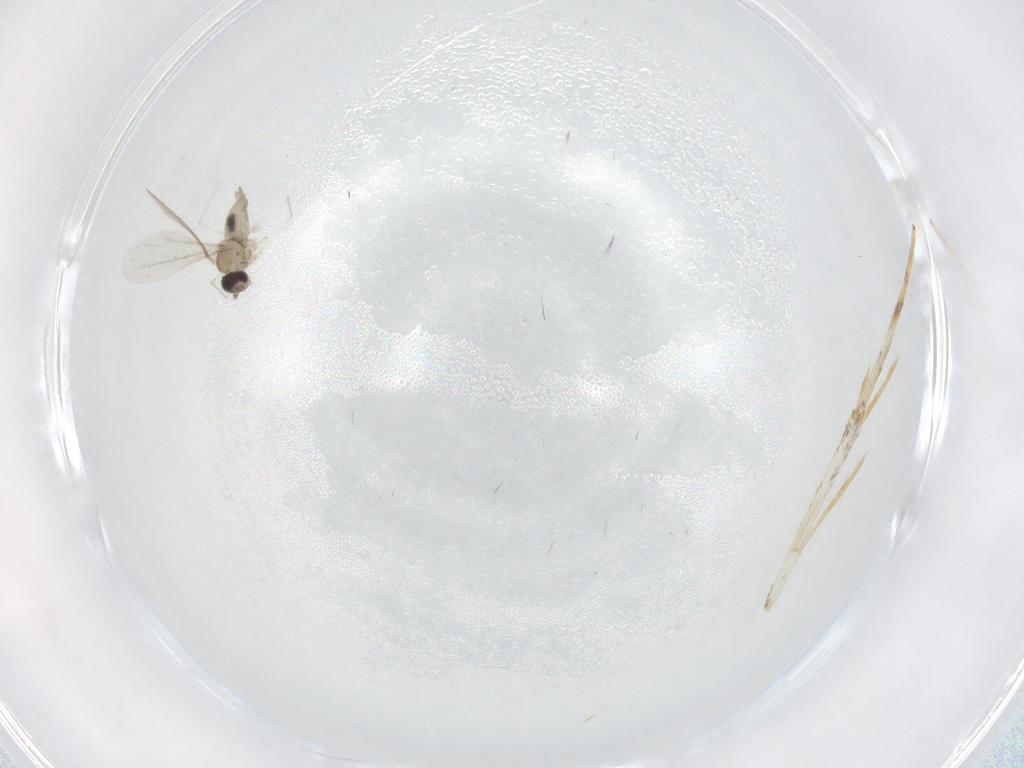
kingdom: Animalia
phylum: Arthropoda
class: Insecta
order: Diptera
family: Cecidomyiidae
